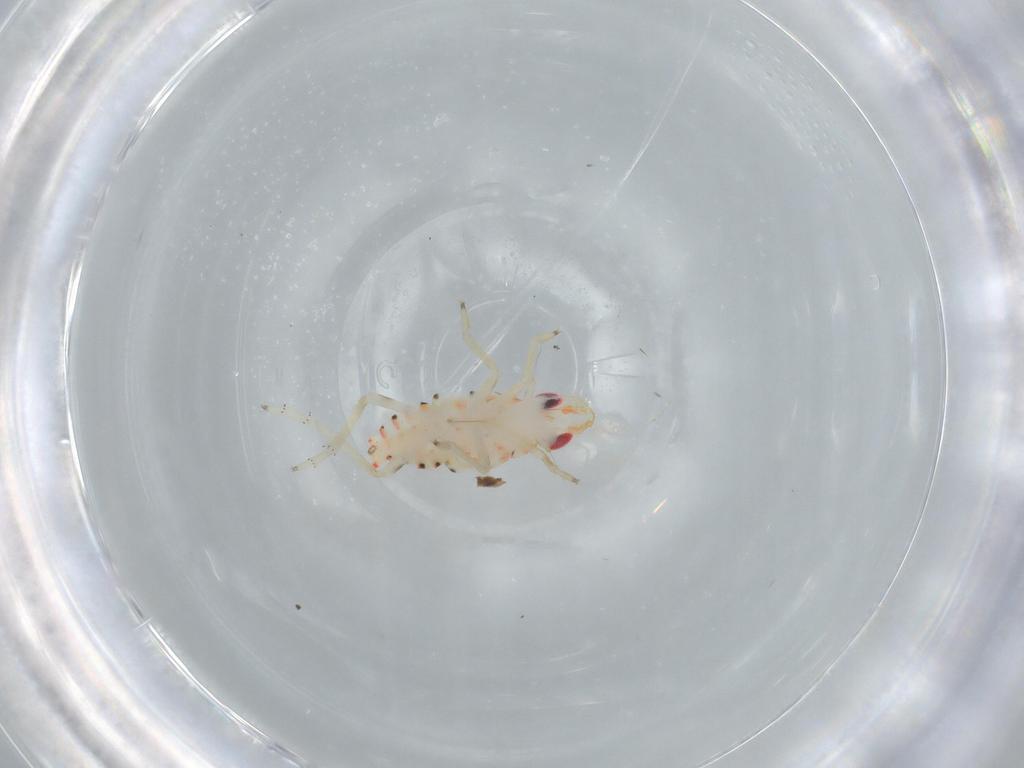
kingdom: Animalia
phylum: Arthropoda
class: Insecta
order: Hemiptera
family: Tropiduchidae
